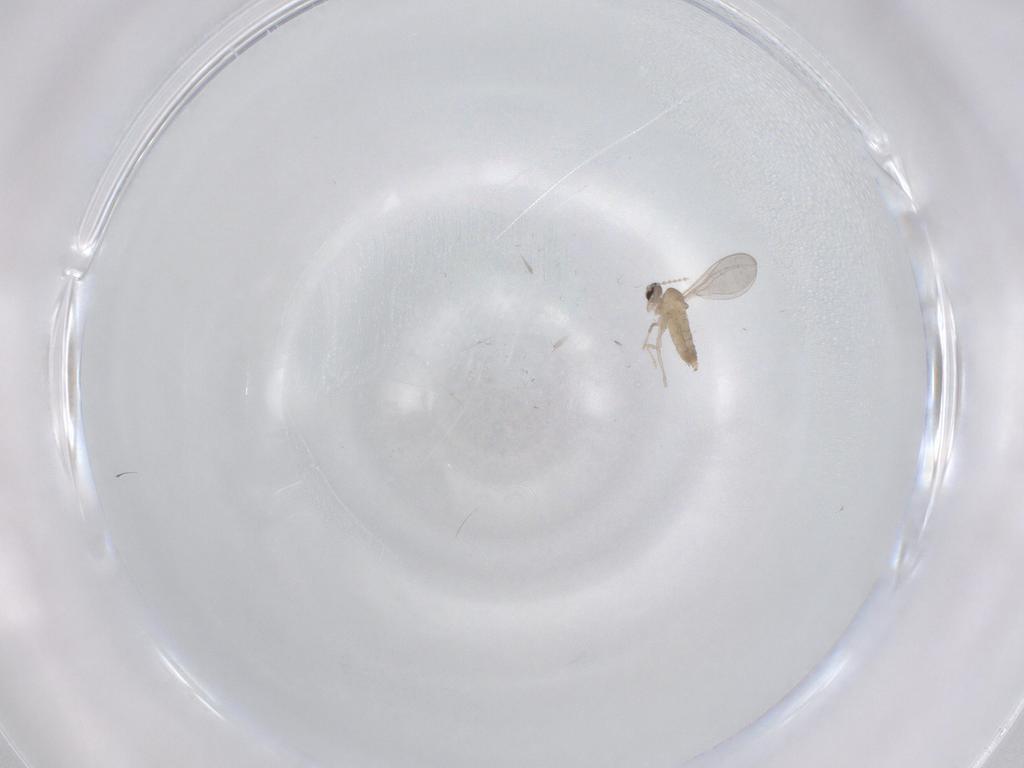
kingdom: Animalia
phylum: Arthropoda
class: Insecta
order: Diptera
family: Cecidomyiidae
